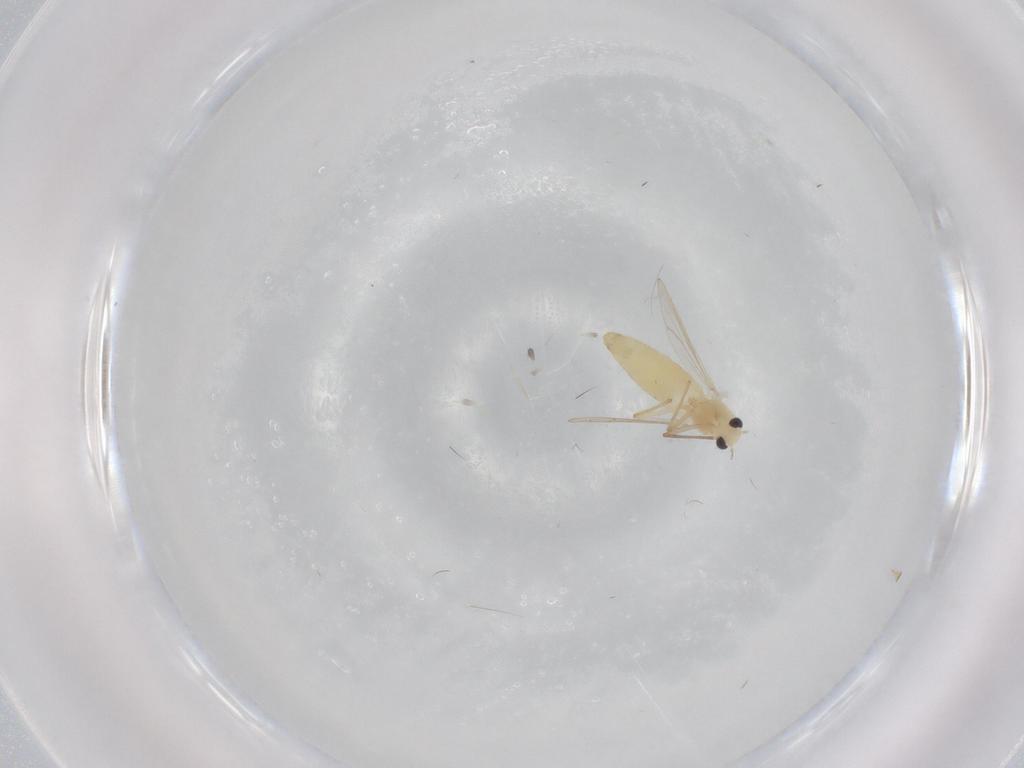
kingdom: Animalia
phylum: Arthropoda
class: Insecta
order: Diptera
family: Chironomidae
